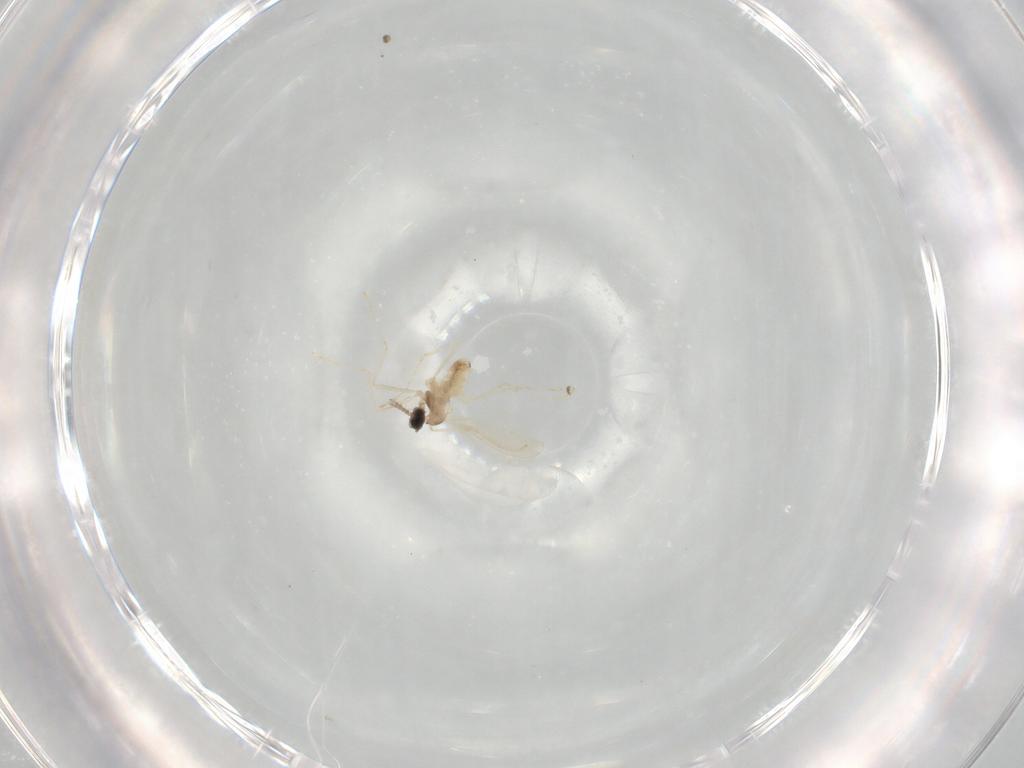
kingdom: Animalia
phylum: Arthropoda
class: Insecta
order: Diptera
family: Cecidomyiidae
